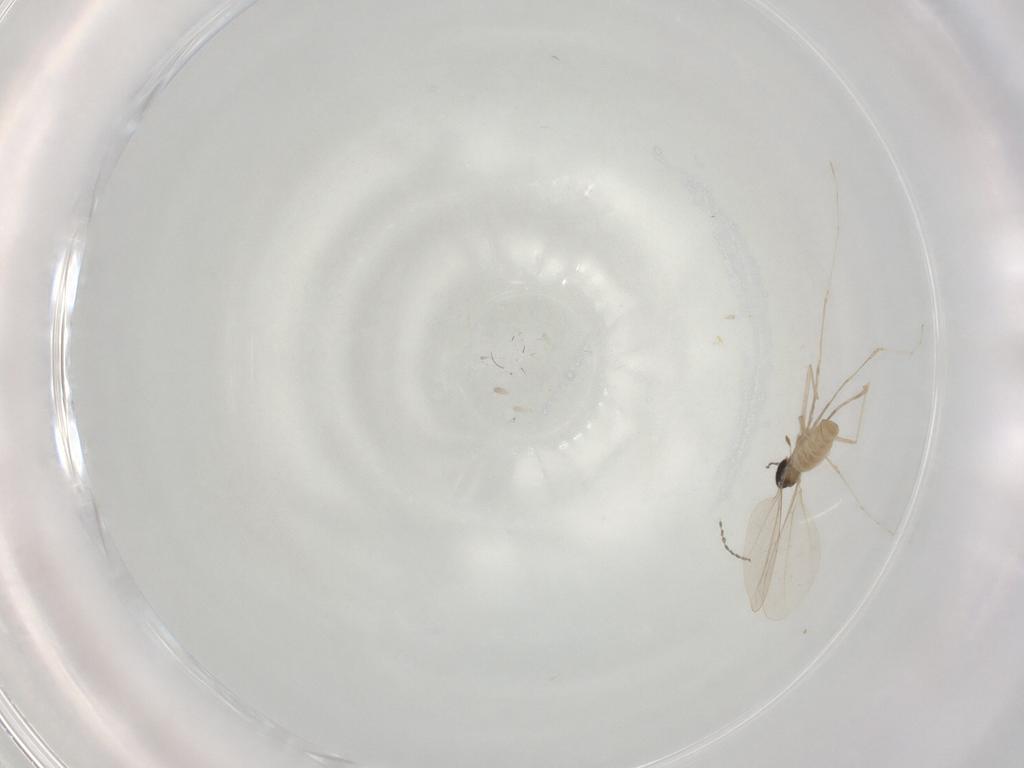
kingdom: Animalia
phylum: Arthropoda
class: Insecta
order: Diptera
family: Cecidomyiidae
